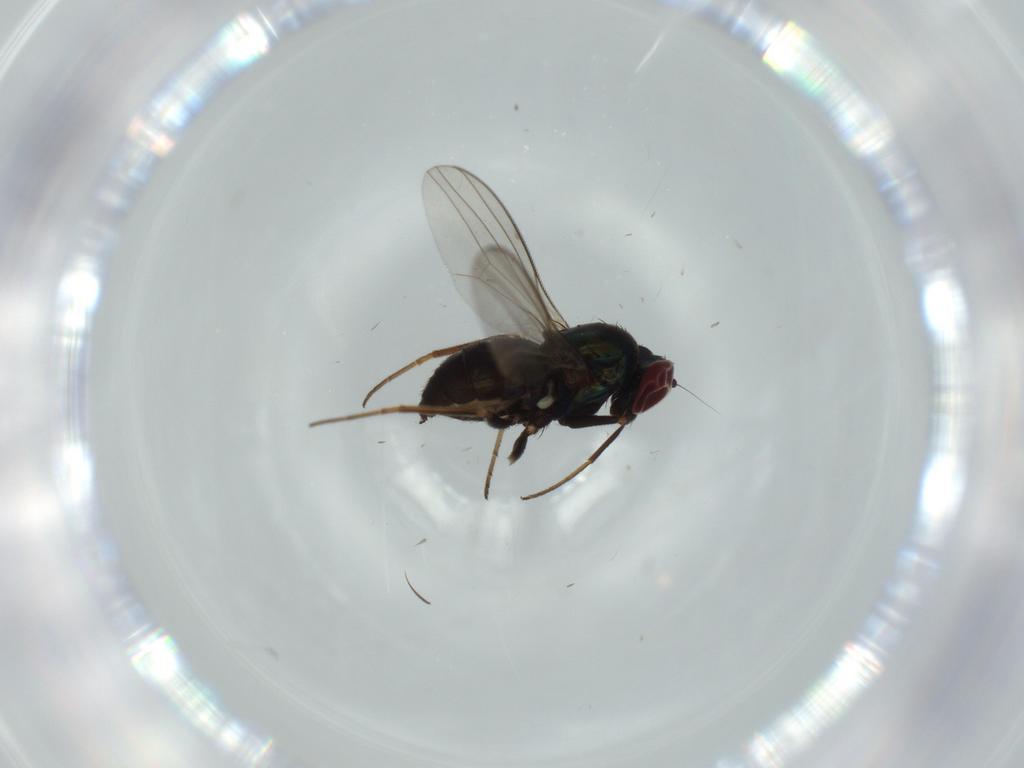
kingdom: Animalia
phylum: Arthropoda
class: Insecta
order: Diptera
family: Dolichopodidae
